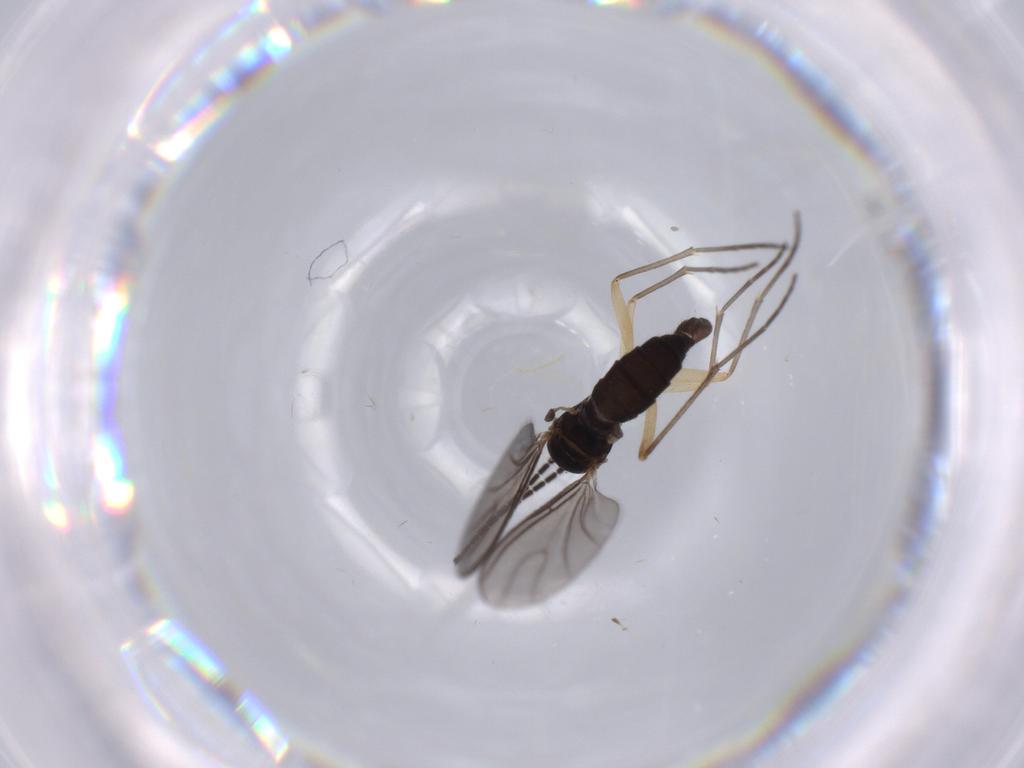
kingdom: Animalia
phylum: Arthropoda
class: Insecta
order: Diptera
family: Sciaridae
